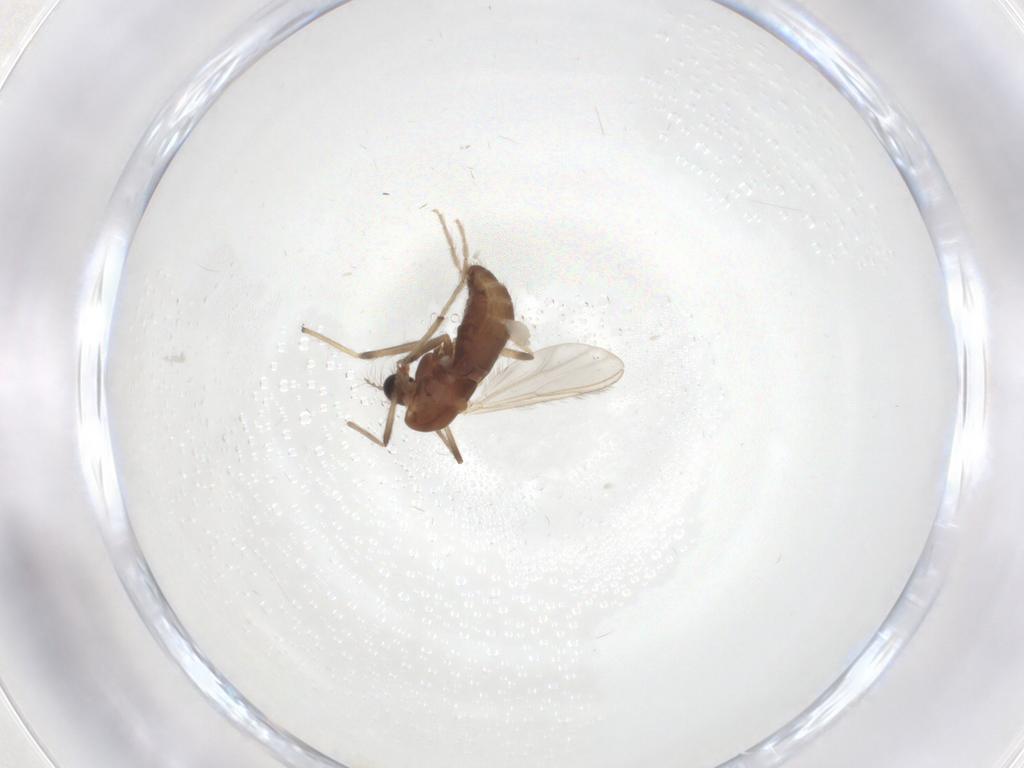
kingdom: Animalia
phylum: Arthropoda
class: Insecta
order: Diptera
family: Chironomidae
